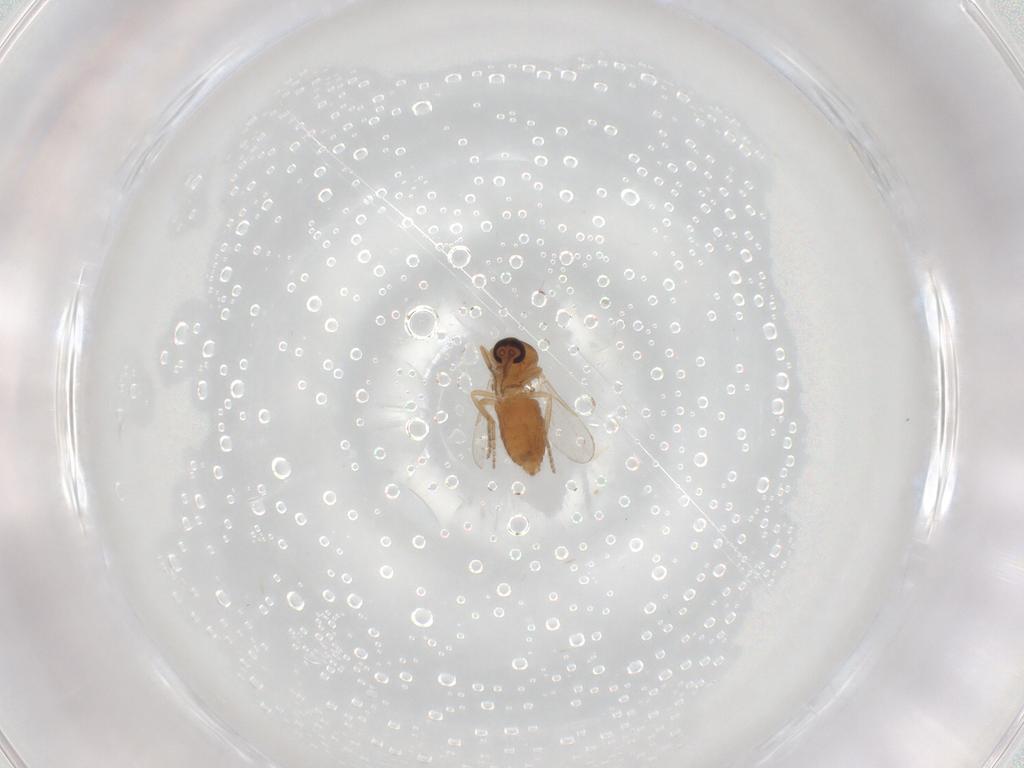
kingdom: Animalia
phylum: Arthropoda
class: Insecta
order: Diptera
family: Ceratopogonidae
